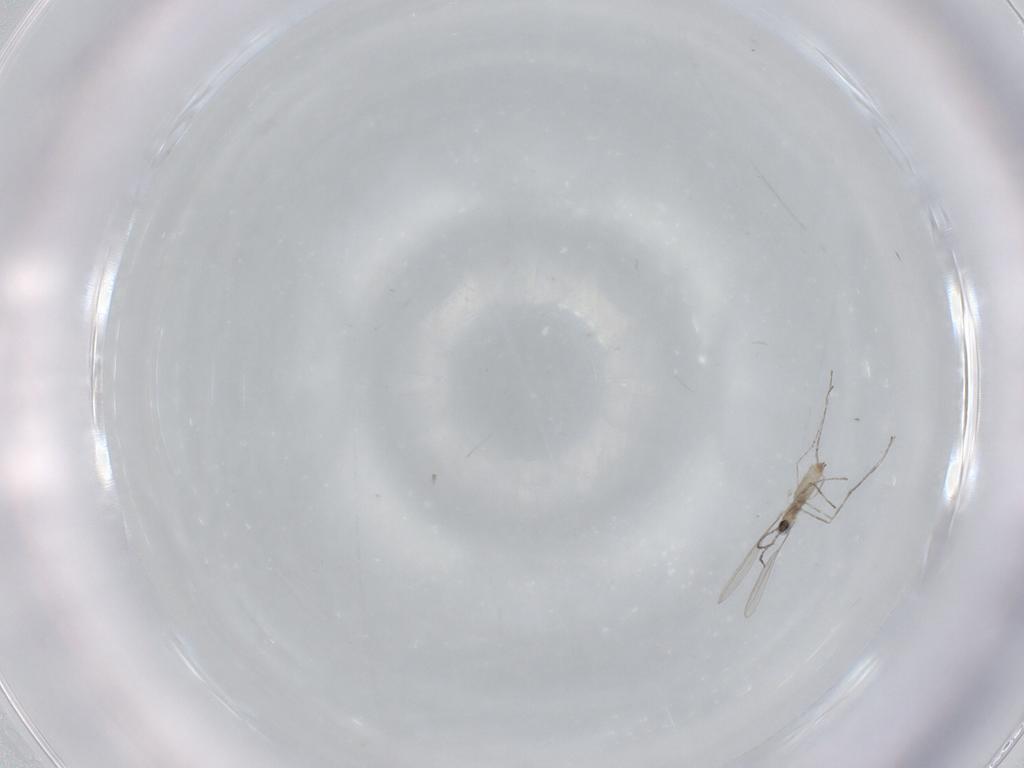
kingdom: Animalia
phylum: Arthropoda
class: Insecta
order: Diptera
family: Cecidomyiidae
